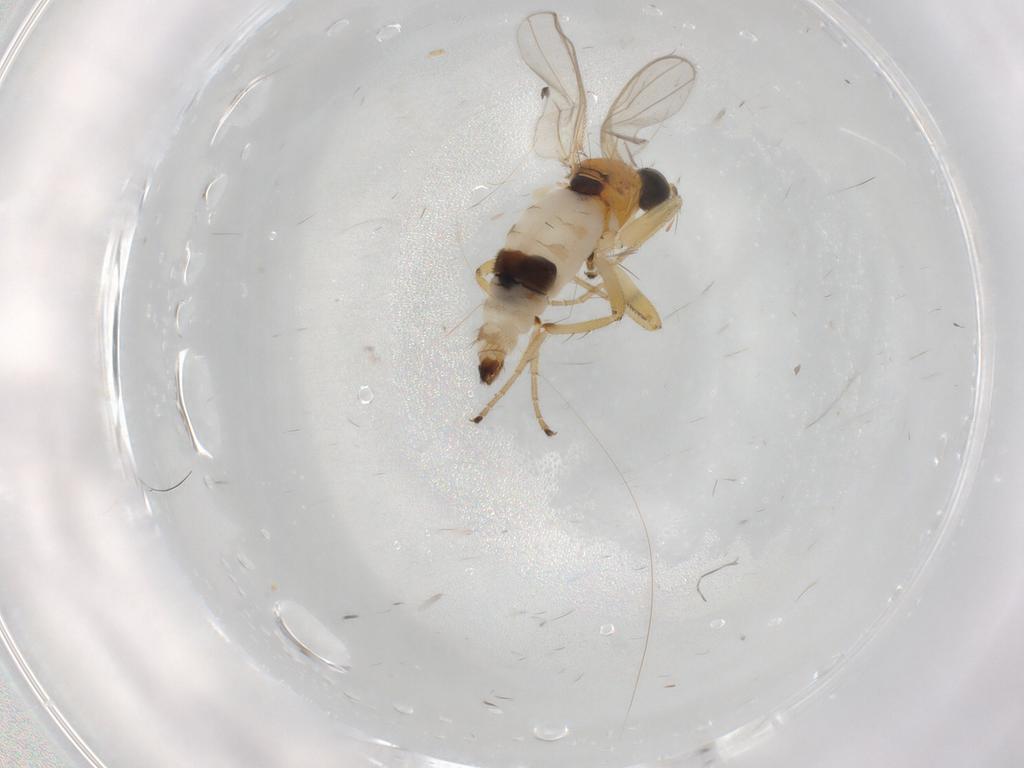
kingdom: Animalia
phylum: Arthropoda
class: Insecta
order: Diptera
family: Hybotidae
